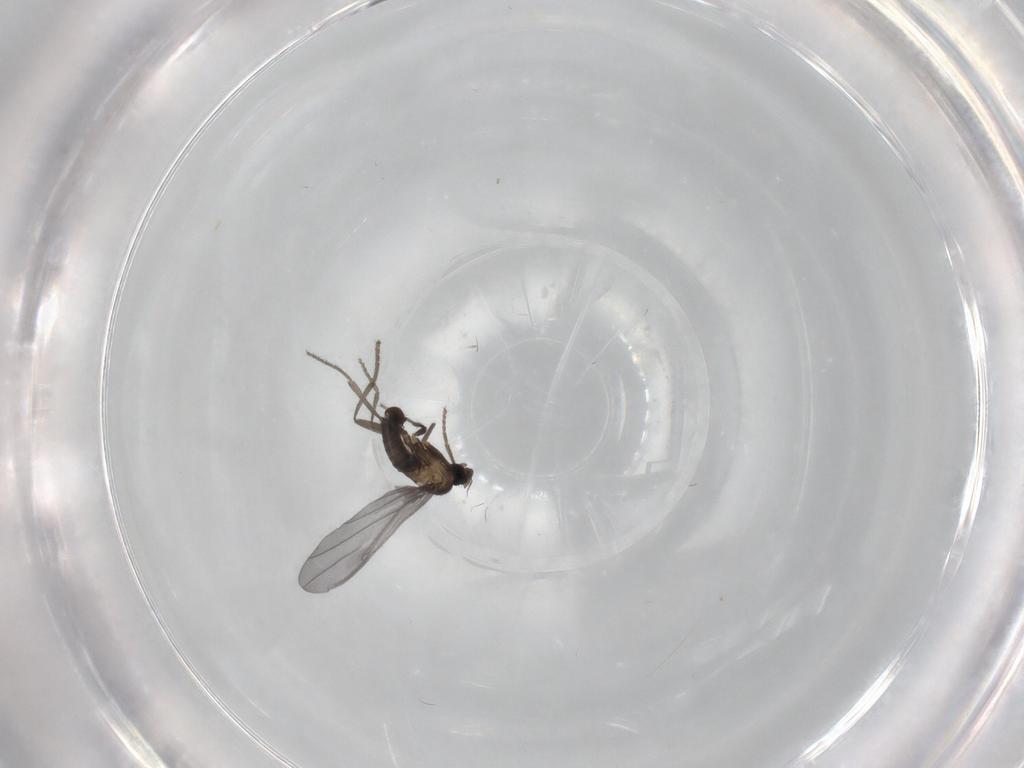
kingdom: Animalia
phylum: Arthropoda
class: Insecta
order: Diptera
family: Phoridae
